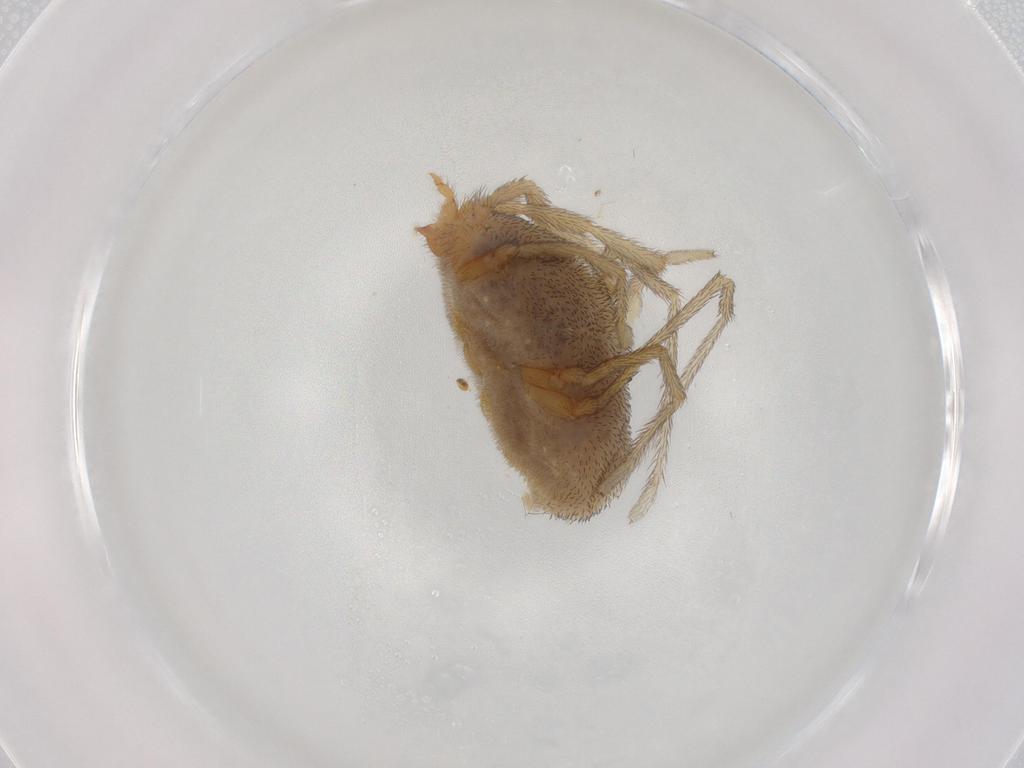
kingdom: Animalia
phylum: Arthropoda
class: Arachnida
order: Trombidiformes
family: Erythraeidae
